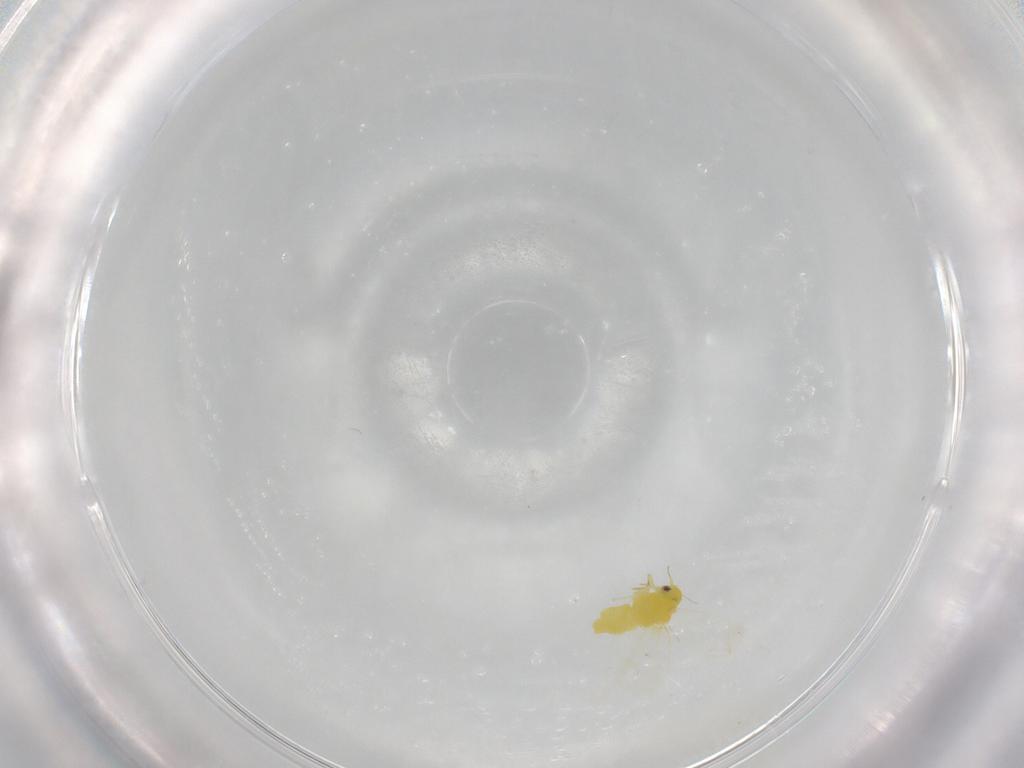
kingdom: Animalia
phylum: Arthropoda
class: Insecta
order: Hemiptera
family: Aleyrodidae
